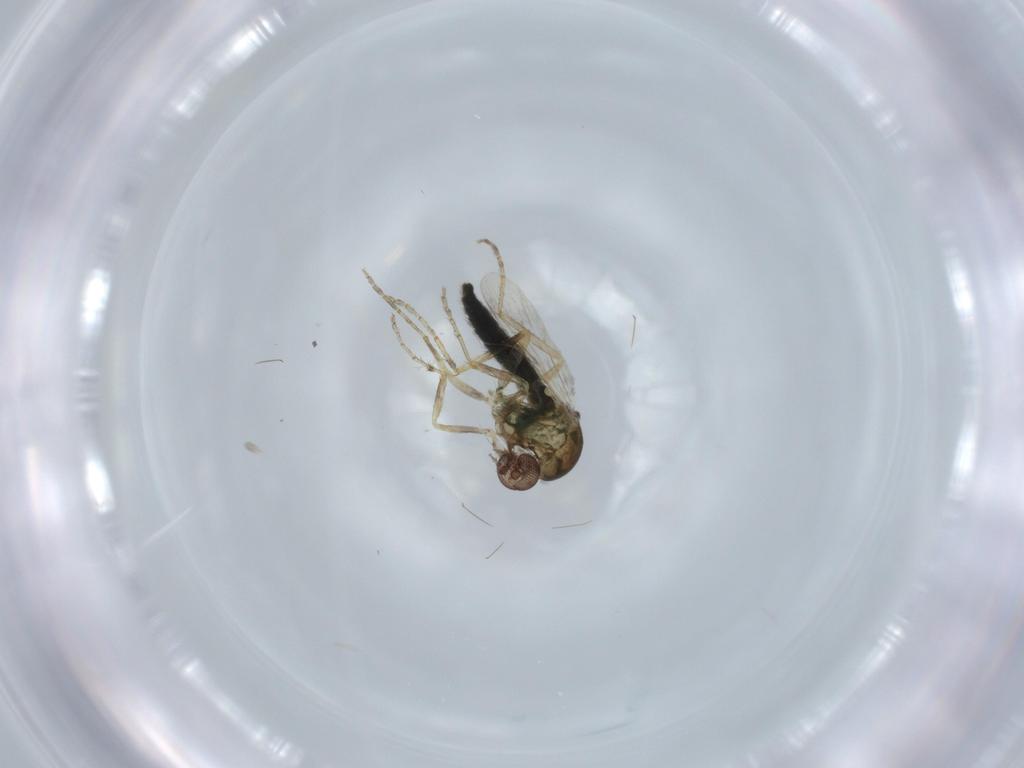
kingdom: Animalia
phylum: Arthropoda
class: Insecta
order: Diptera
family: Ceratopogonidae
